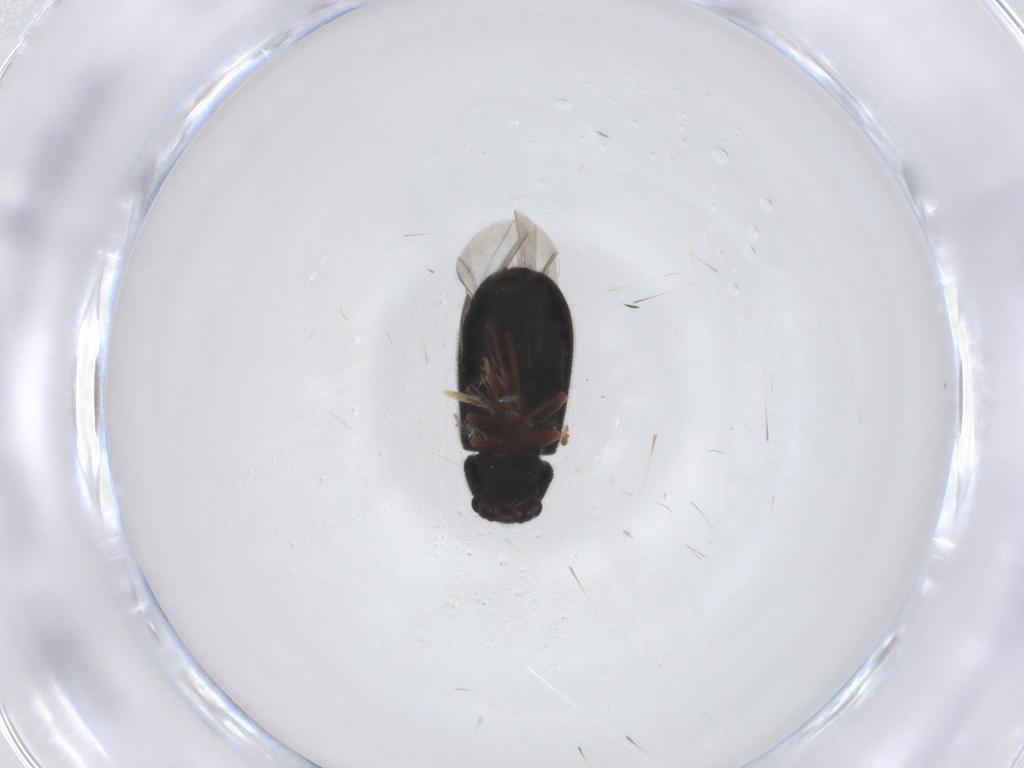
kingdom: Animalia
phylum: Arthropoda
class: Insecta
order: Coleoptera
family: Melyridae
